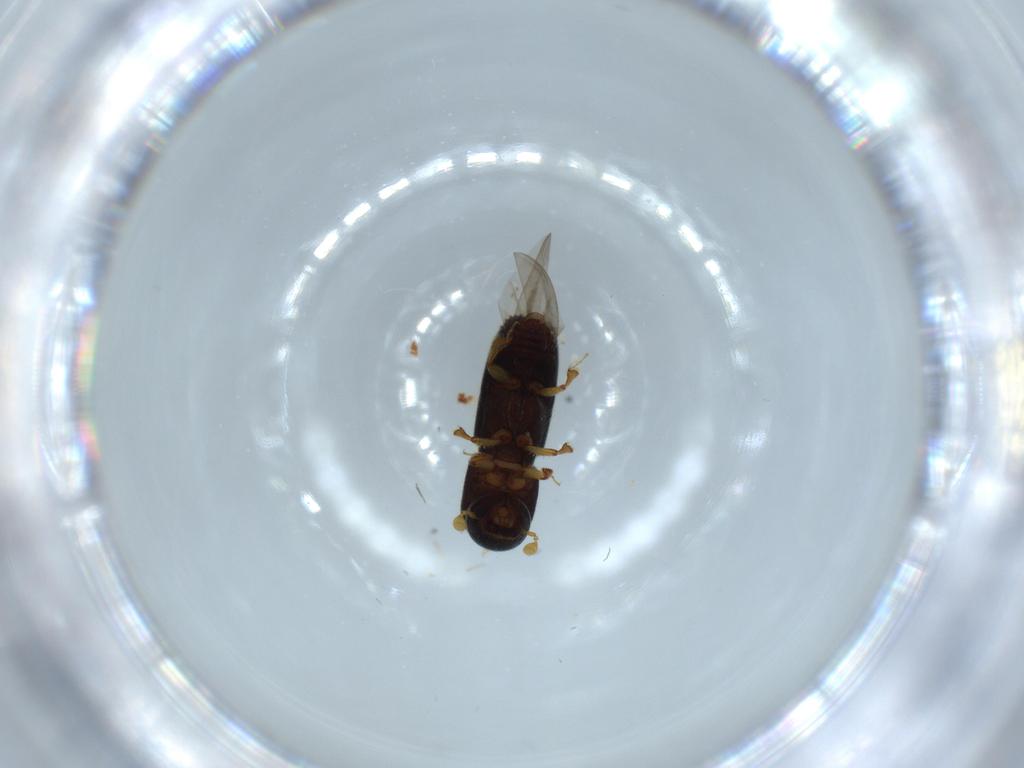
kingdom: Animalia
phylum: Arthropoda
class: Insecta
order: Coleoptera
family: Curculionidae
